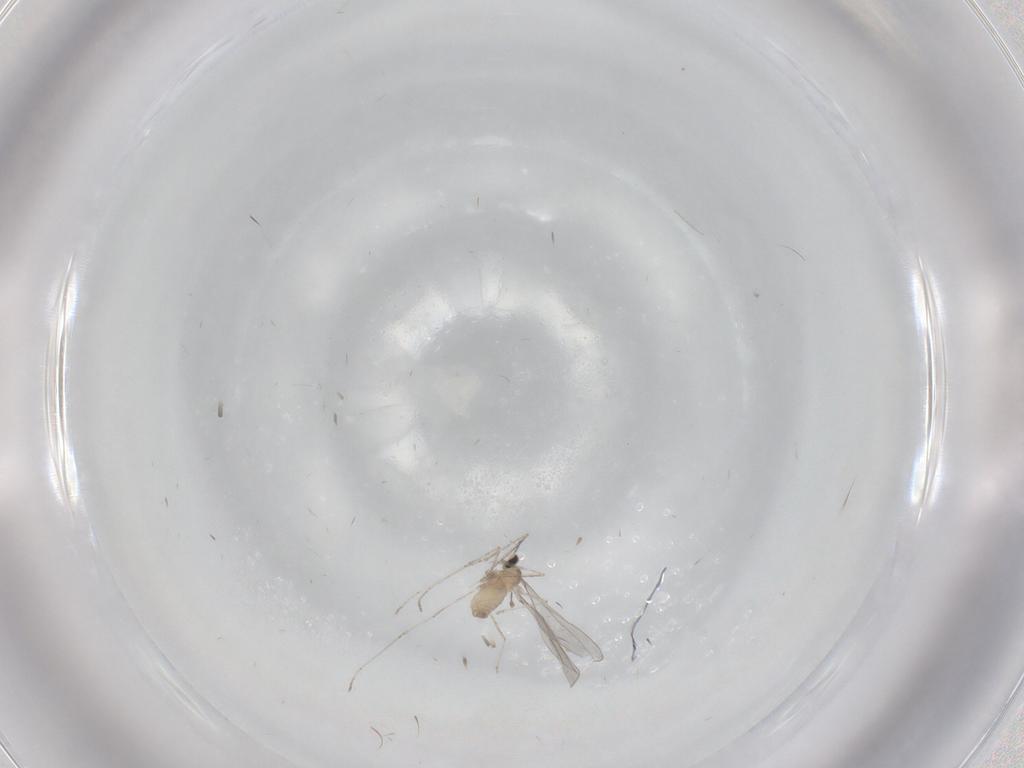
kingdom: Animalia
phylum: Arthropoda
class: Insecta
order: Diptera
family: Cecidomyiidae
